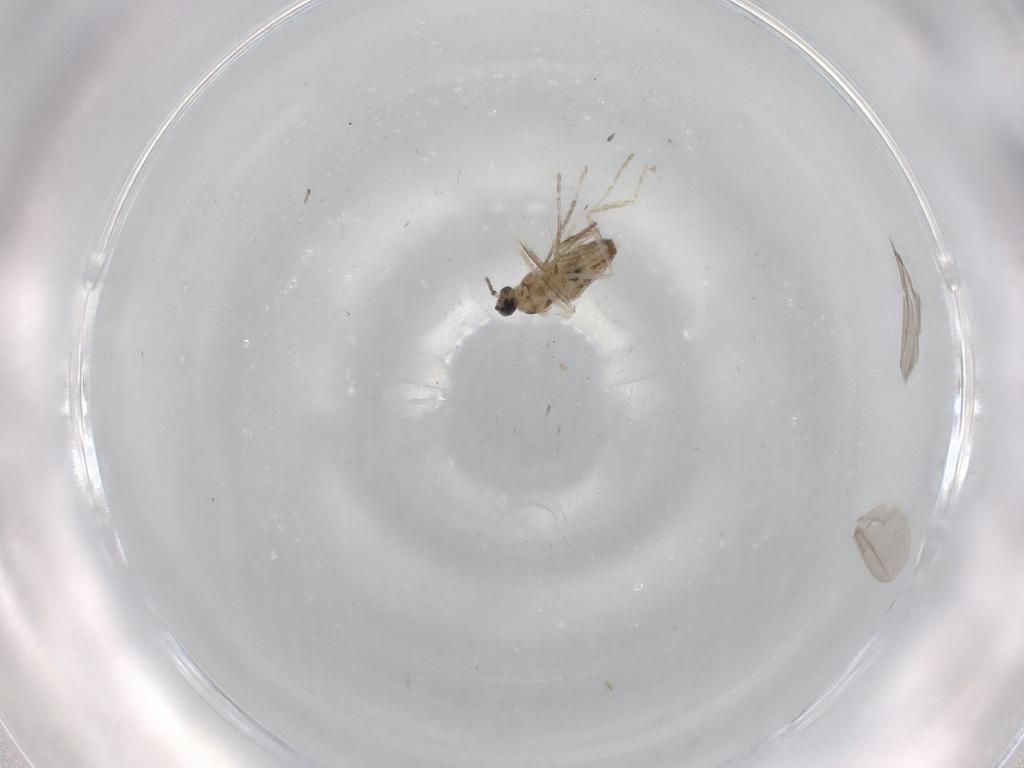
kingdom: Animalia
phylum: Arthropoda
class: Insecta
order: Diptera
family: Cecidomyiidae
